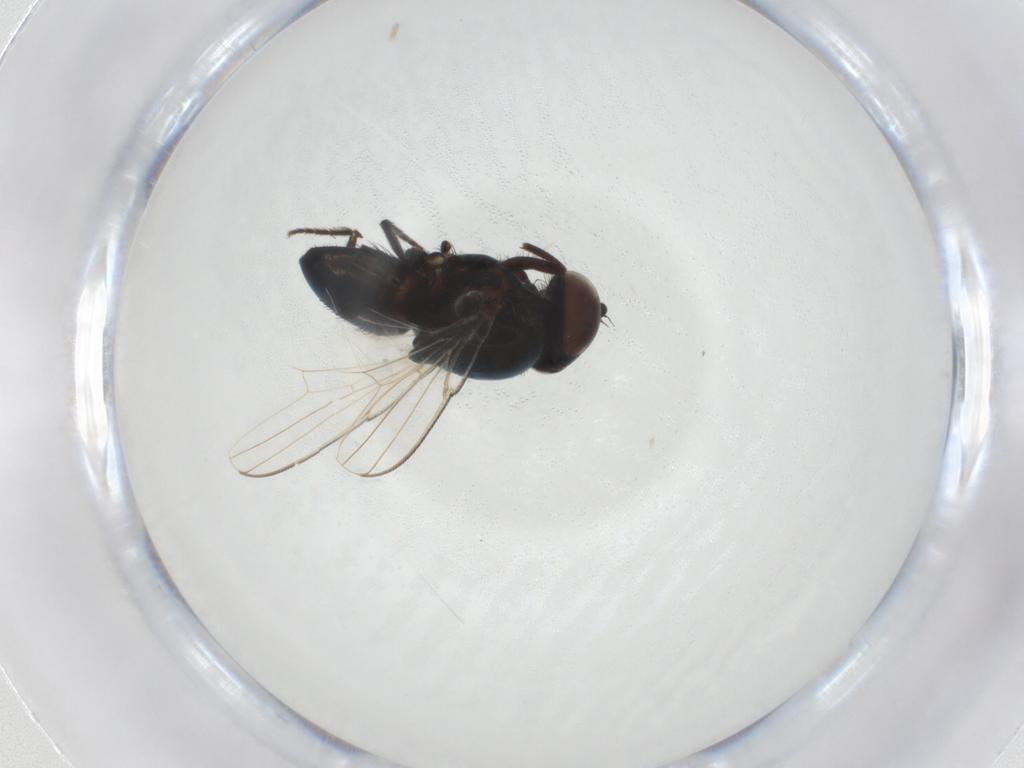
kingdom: Animalia
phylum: Arthropoda
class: Insecta
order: Diptera
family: Milichiidae
